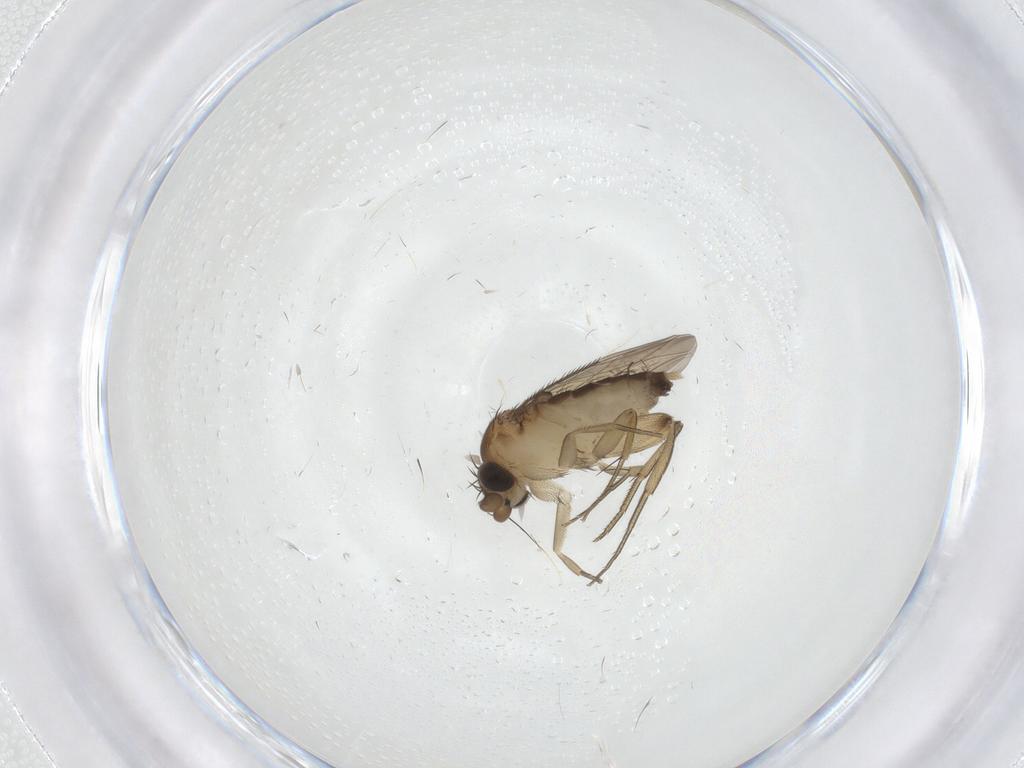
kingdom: Animalia
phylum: Arthropoda
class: Insecta
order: Diptera
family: Phoridae
